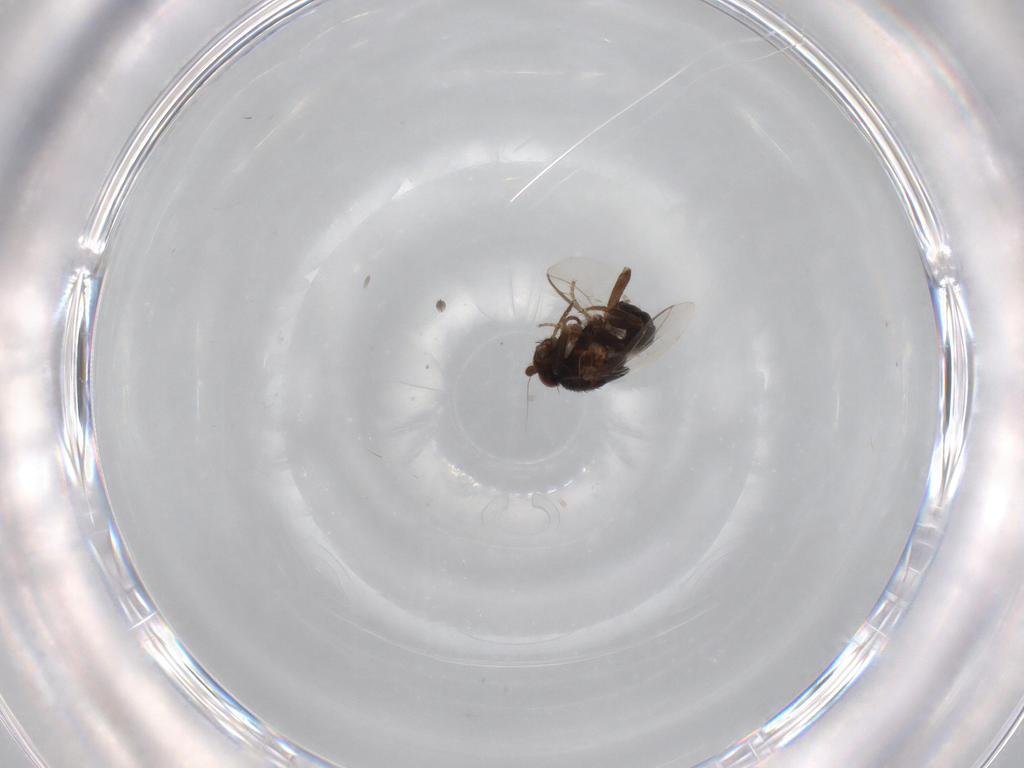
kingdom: Animalia
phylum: Arthropoda
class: Insecta
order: Diptera
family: Sphaeroceridae
